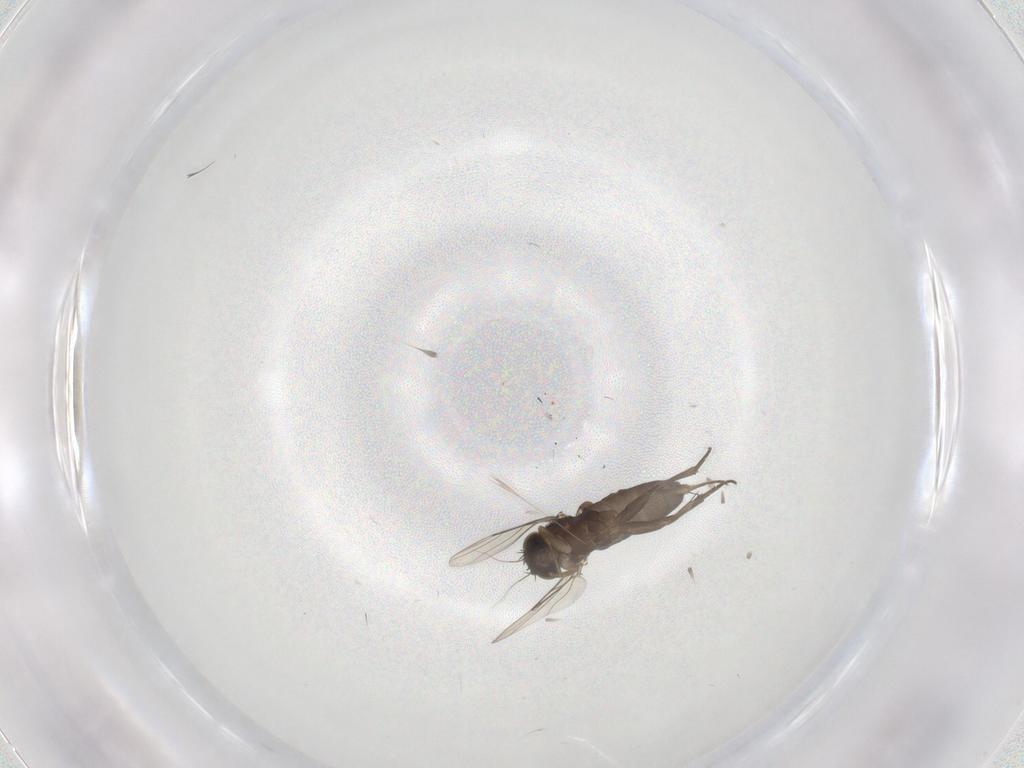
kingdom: Animalia
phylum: Arthropoda
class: Insecta
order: Diptera
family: Phoridae
